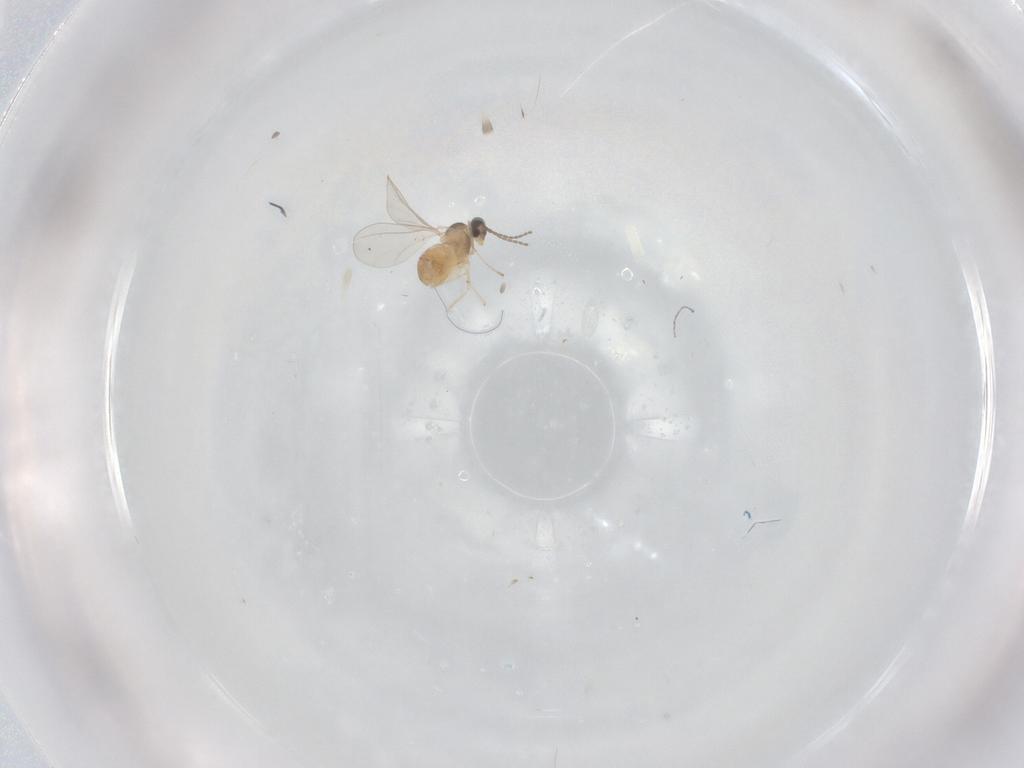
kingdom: Animalia
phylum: Arthropoda
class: Insecta
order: Diptera
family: Cecidomyiidae
